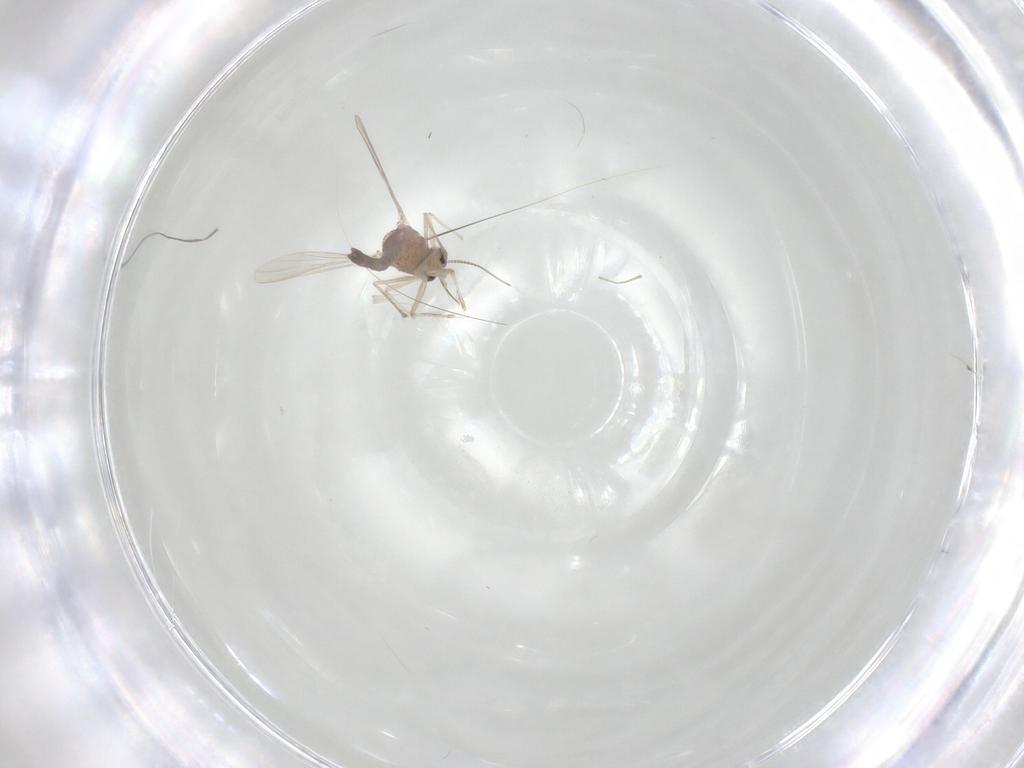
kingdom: Animalia
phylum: Arthropoda
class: Insecta
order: Diptera
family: Chironomidae
